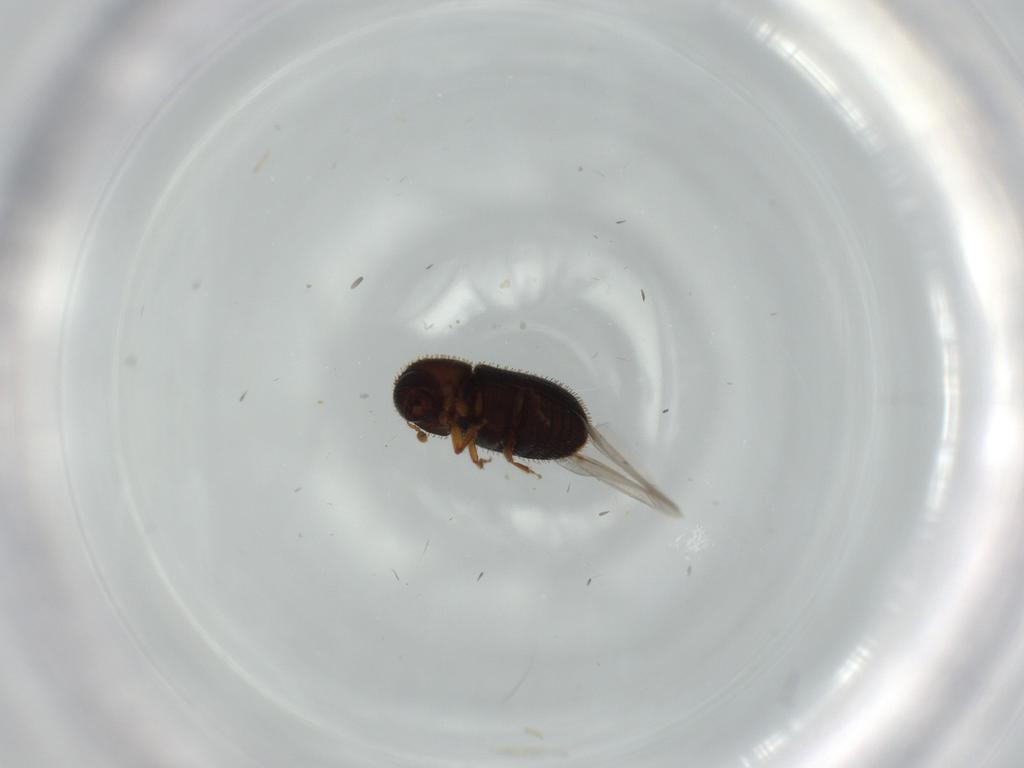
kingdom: Animalia
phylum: Arthropoda
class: Insecta
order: Coleoptera
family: Curculionidae
